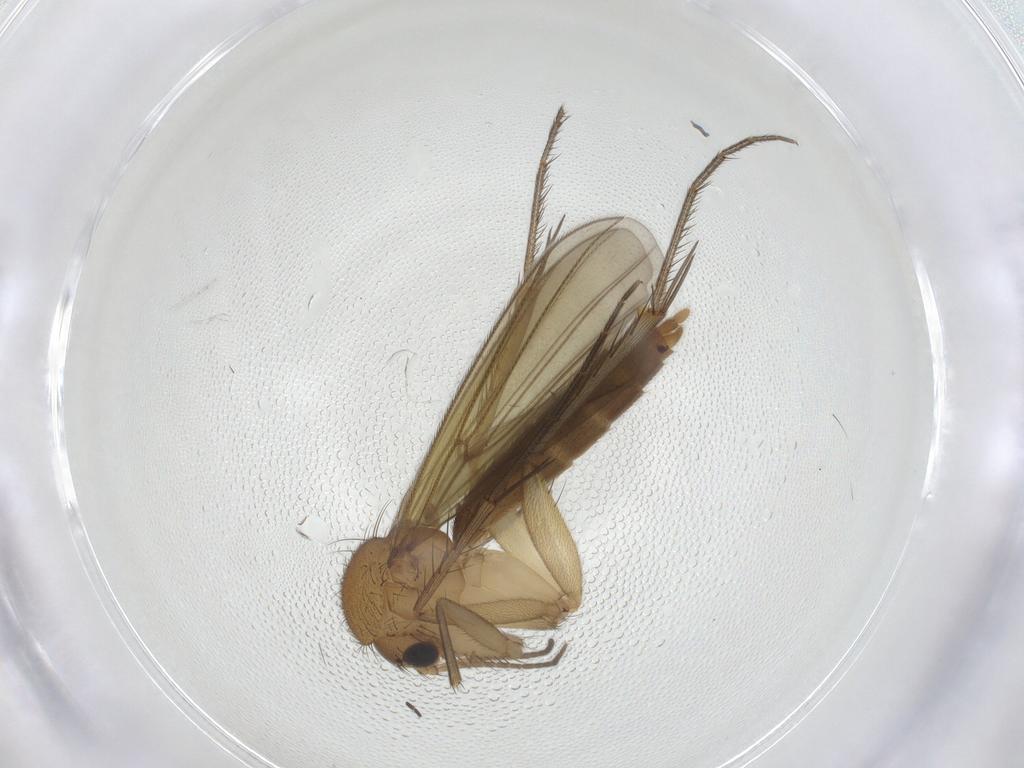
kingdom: Animalia
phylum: Arthropoda
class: Insecta
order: Diptera
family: Mycetophilidae
